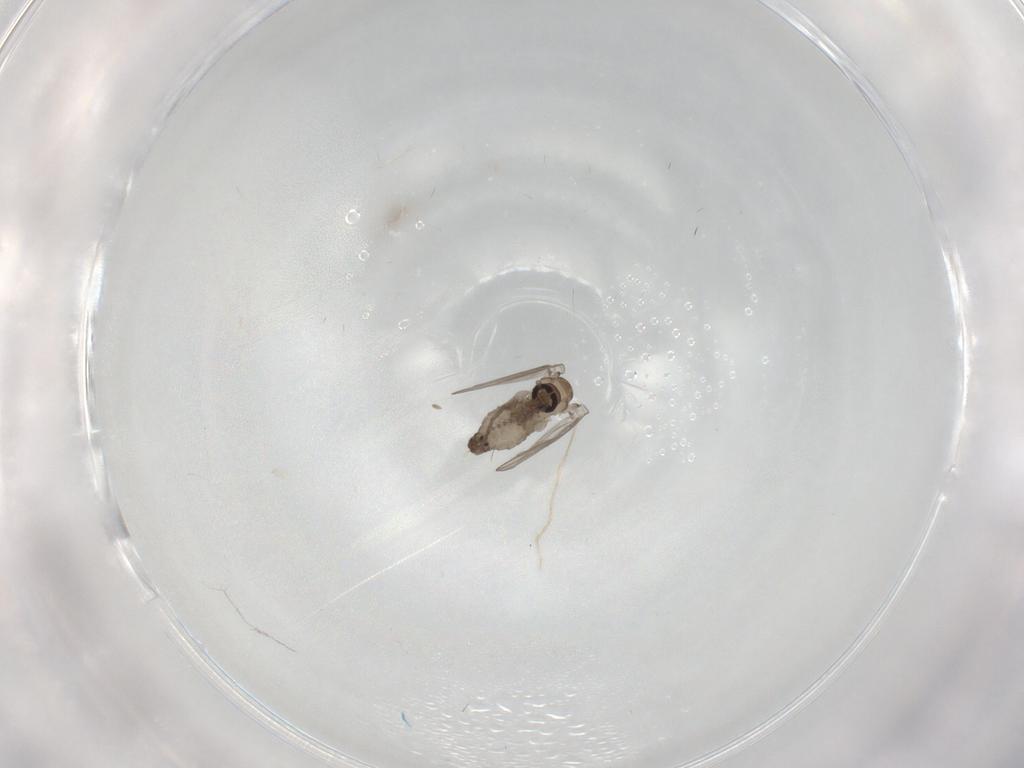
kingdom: Animalia
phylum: Arthropoda
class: Insecta
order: Diptera
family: Psychodidae
